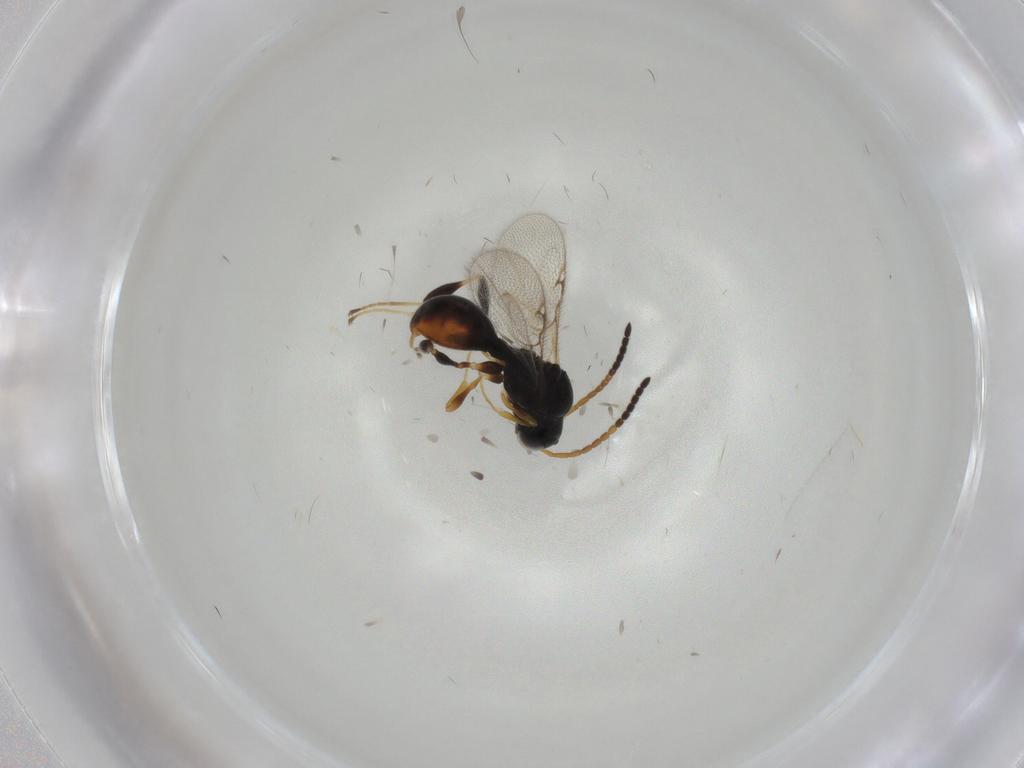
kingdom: Animalia
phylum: Arthropoda
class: Insecta
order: Hymenoptera
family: Diapriidae
